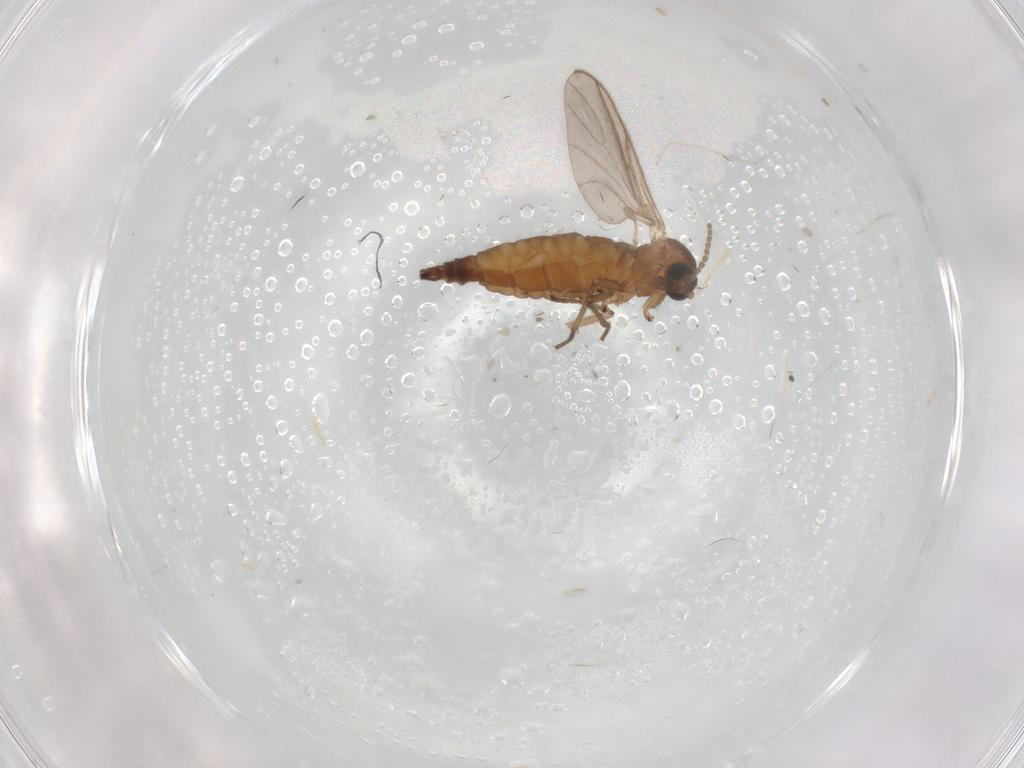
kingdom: Animalia
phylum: Arthropoda
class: Insecta
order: Diptera
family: Sciaridae
